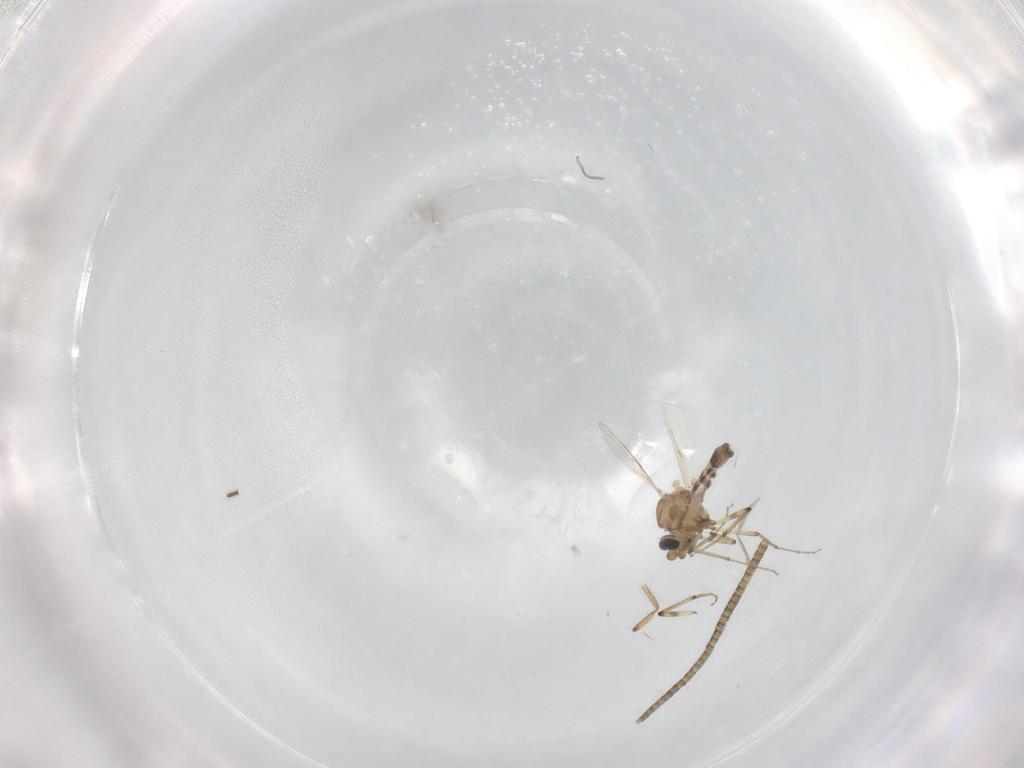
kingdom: Animalia
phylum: Arthropoda
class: Insecta
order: Diptera
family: Ceratopogonidae
